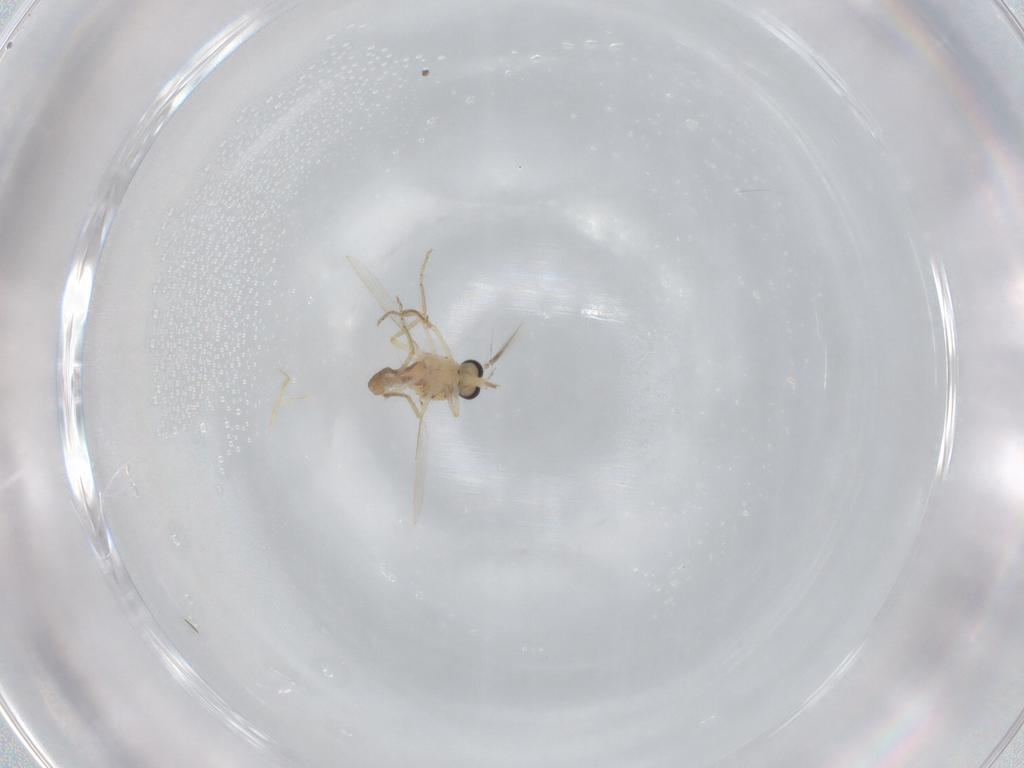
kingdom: Animalia
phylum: Arthropoda
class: Insecta
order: Diptera
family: Ceratopogonidae
